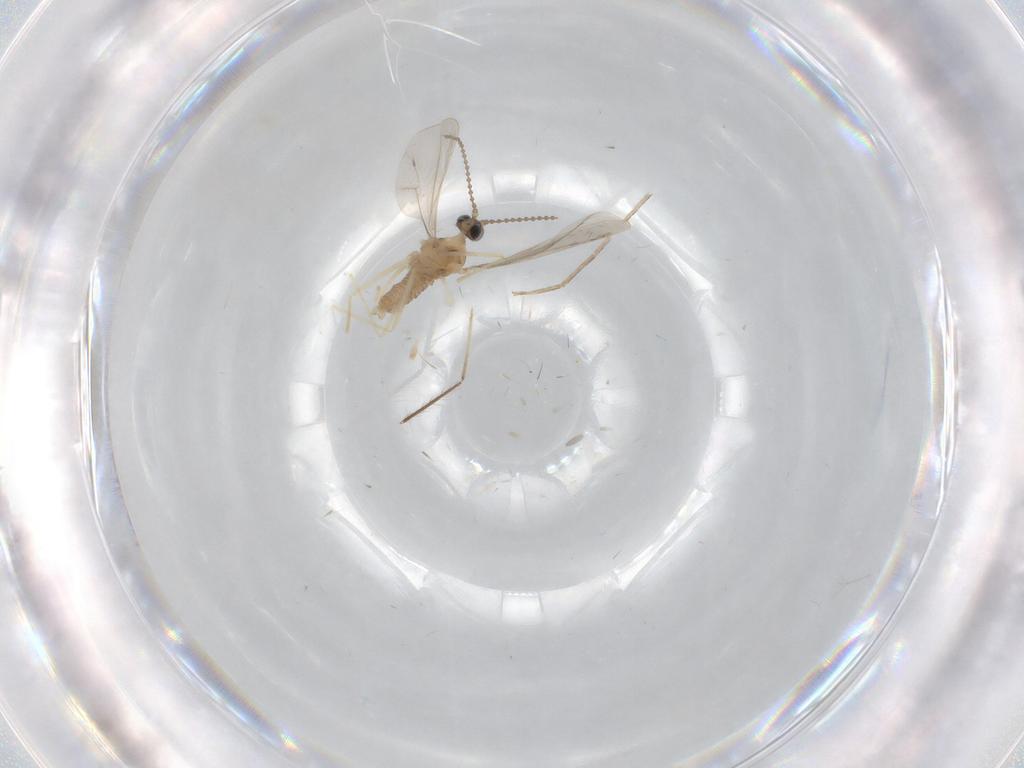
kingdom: Animalia
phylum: Arthropoda
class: Insecta
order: Diptera
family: Cecidomyiidae
